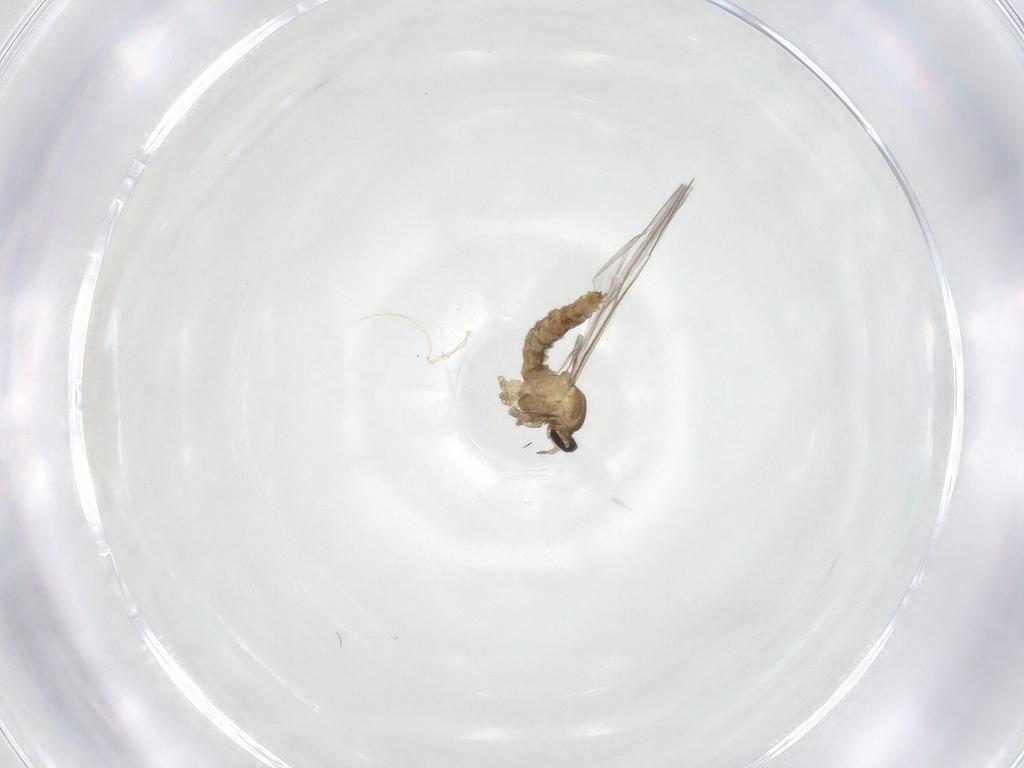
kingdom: Animalia
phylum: Arthropoda
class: Insecta
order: Diptera
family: Cecidomyiidae
